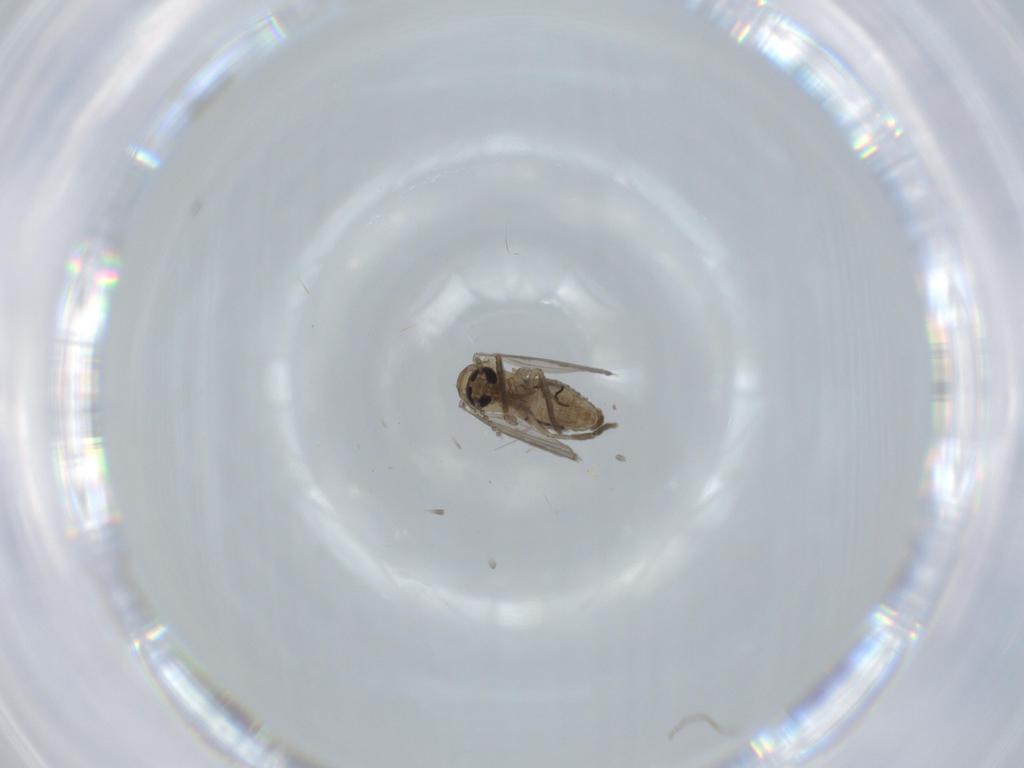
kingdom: Animalia
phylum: Arthropoda
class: Insecta
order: Diptera
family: Psychodidae
